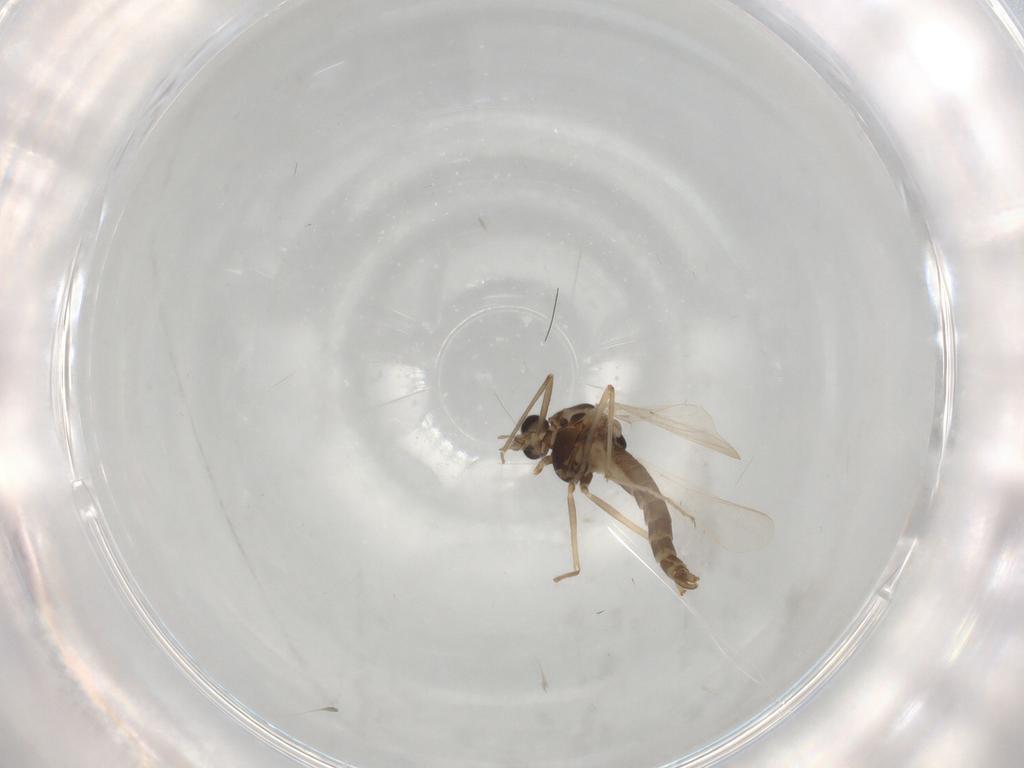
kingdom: Animalia
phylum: Arthropoda
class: Insecta
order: Diptera
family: Chironomidae
